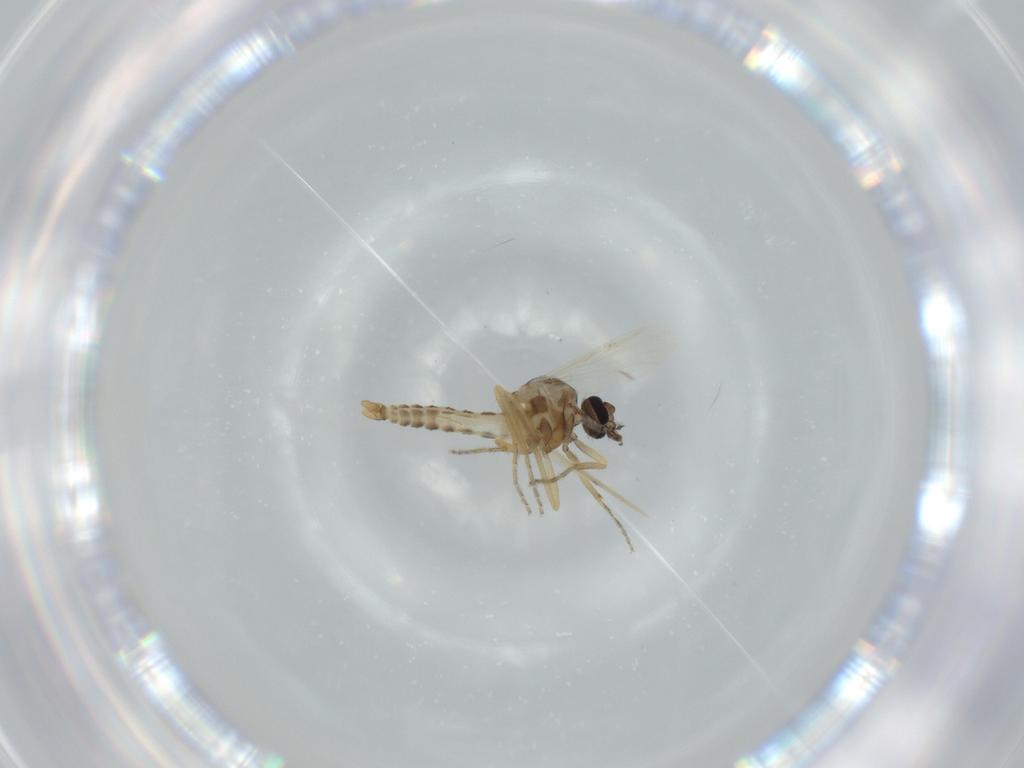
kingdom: Animalia
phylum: Arthropoda
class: Insecta
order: Diptera
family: Ceratopogonidae
